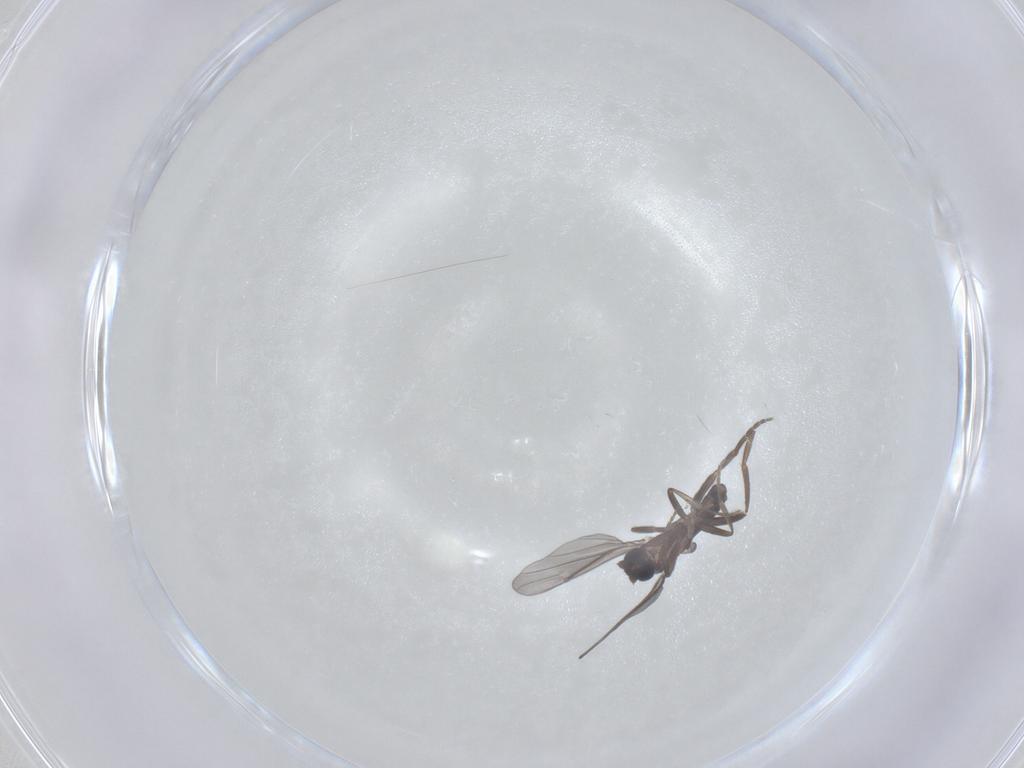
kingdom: Animalia
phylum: Arthropoda
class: Insecta
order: Diptera
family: Phoridae
